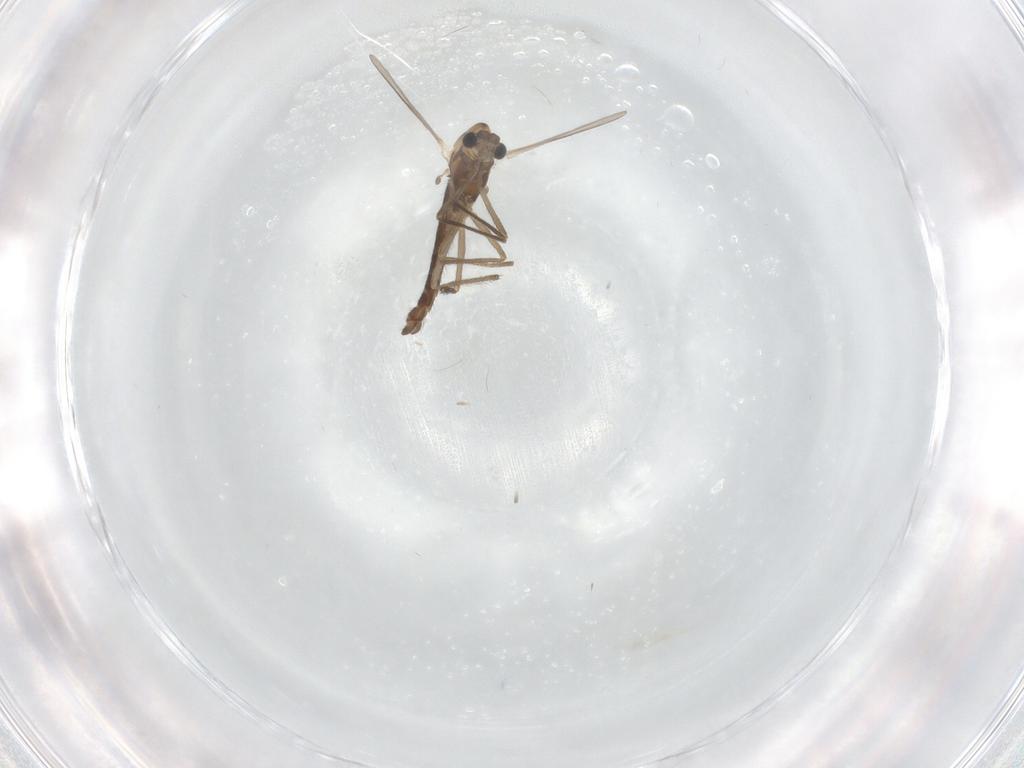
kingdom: Animalia
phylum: Arthropoda
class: Insecta
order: Diptera
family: Chironomidae
